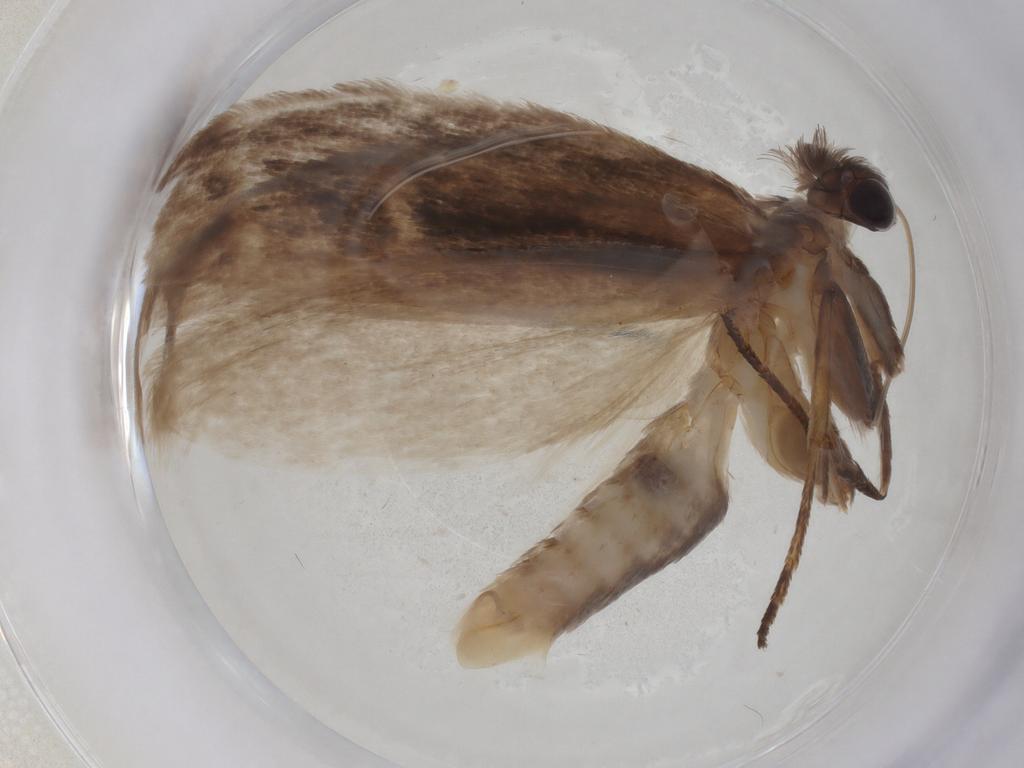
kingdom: Animalia
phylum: Arthropoda
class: Insecta
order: Lepidoptera
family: Roeslerstammiidae
